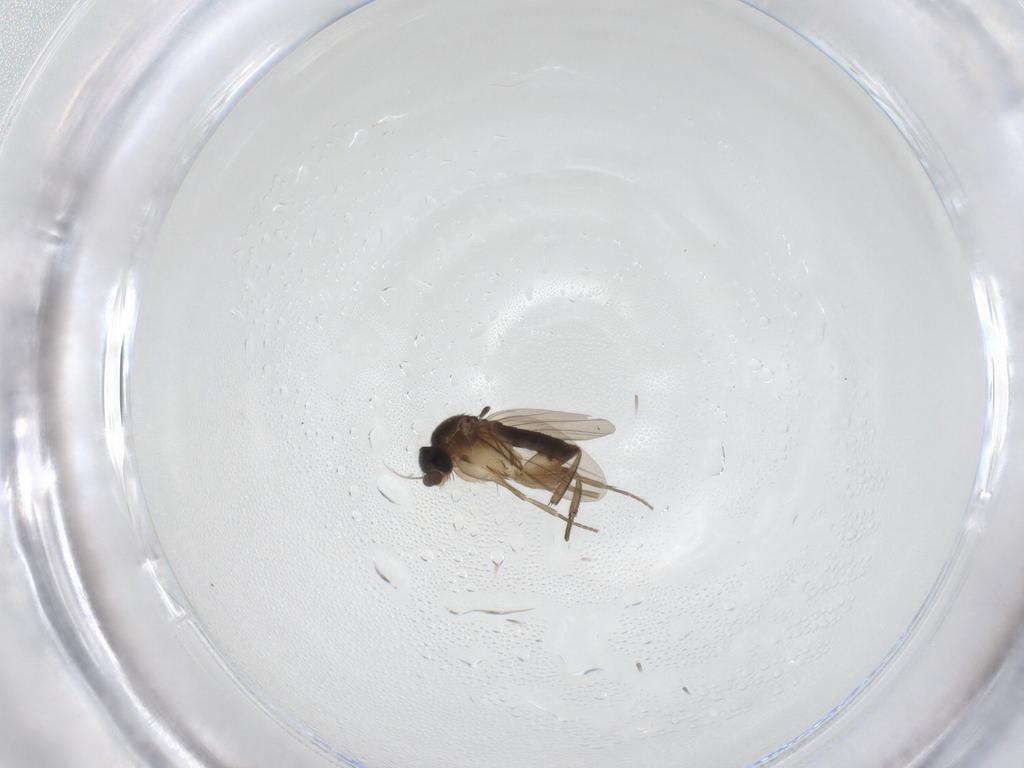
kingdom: Animalia
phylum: Arthropoda
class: Insecta
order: Diptera
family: Phoridae
